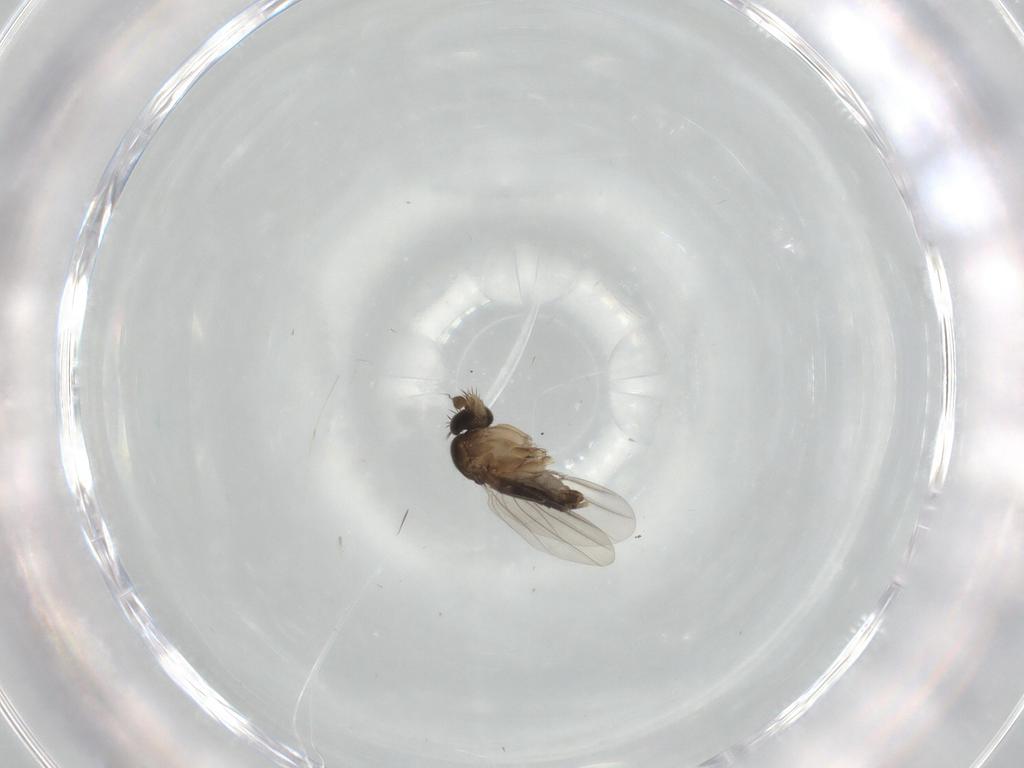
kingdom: Animalia
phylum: Arthropoda
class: Insecta
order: Diptera
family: Phoridae
